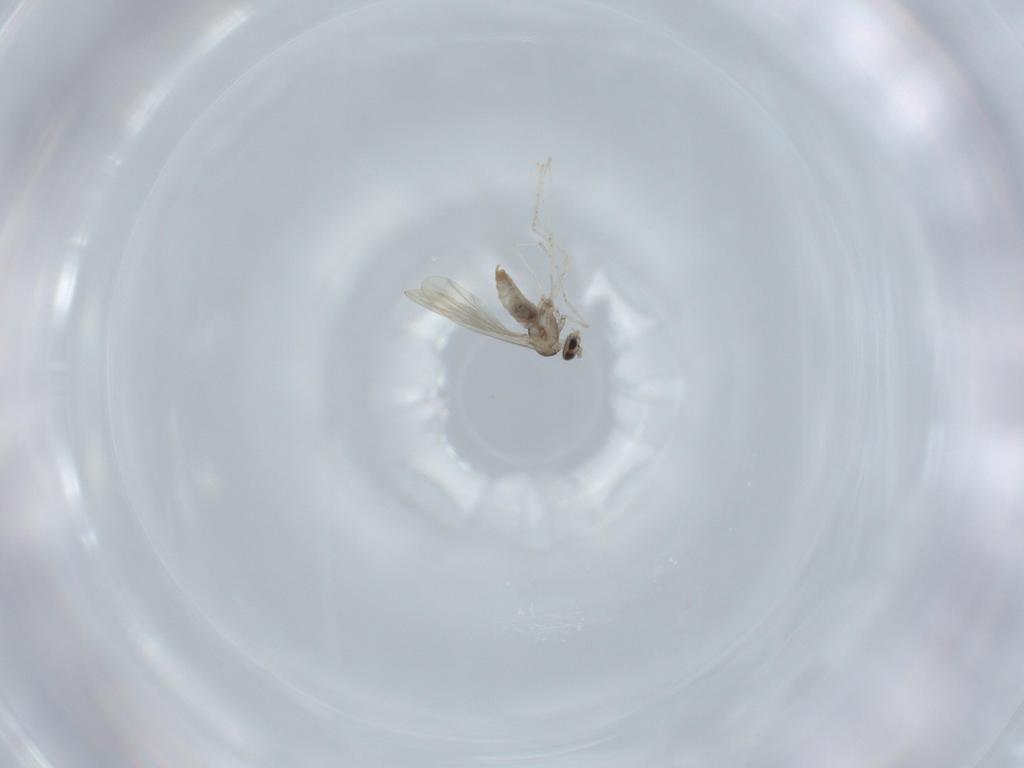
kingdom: Animalia
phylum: Arthropoda
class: Insecta
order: Diptera
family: Cecidomyiidae
